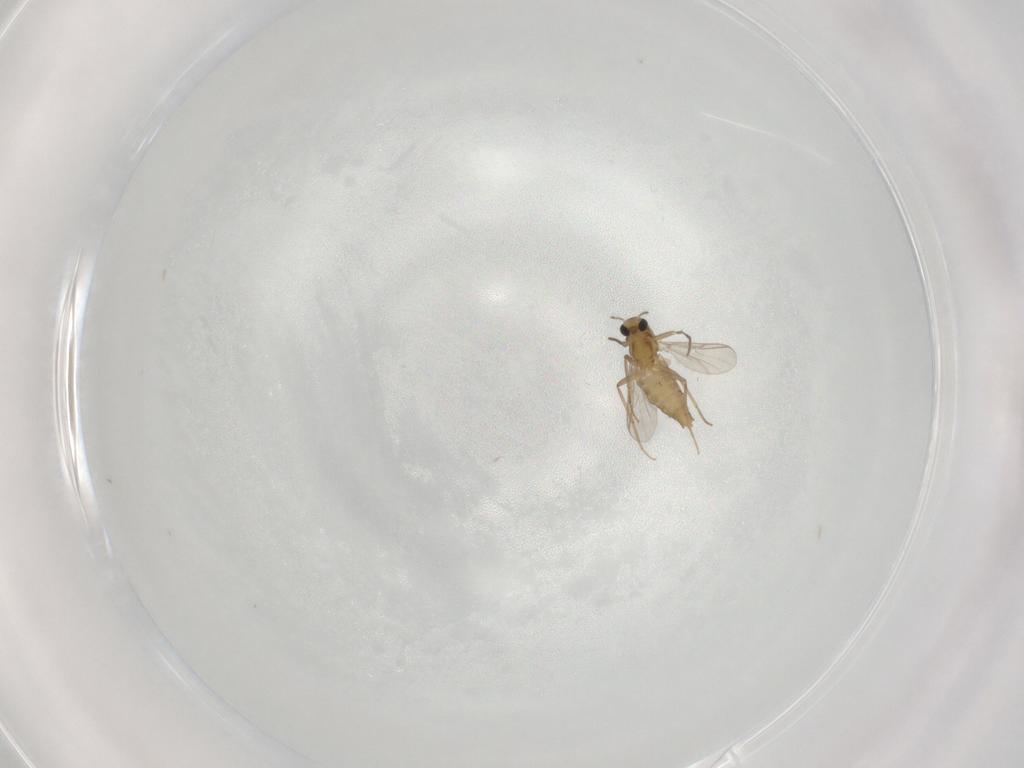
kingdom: Animalia
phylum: Arthropoda
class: Insecta
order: Diptera
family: Chironomidae
